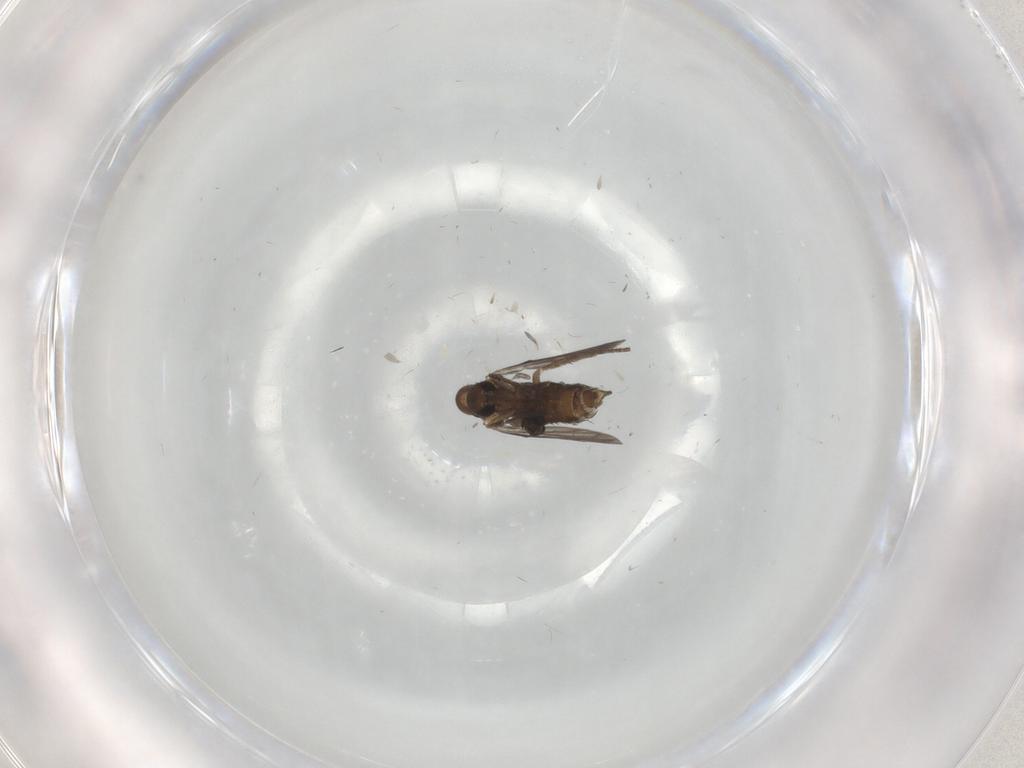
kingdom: Animalia
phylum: Arthropoda
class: Insecta
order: Diptera
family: Cecidomyiidae
